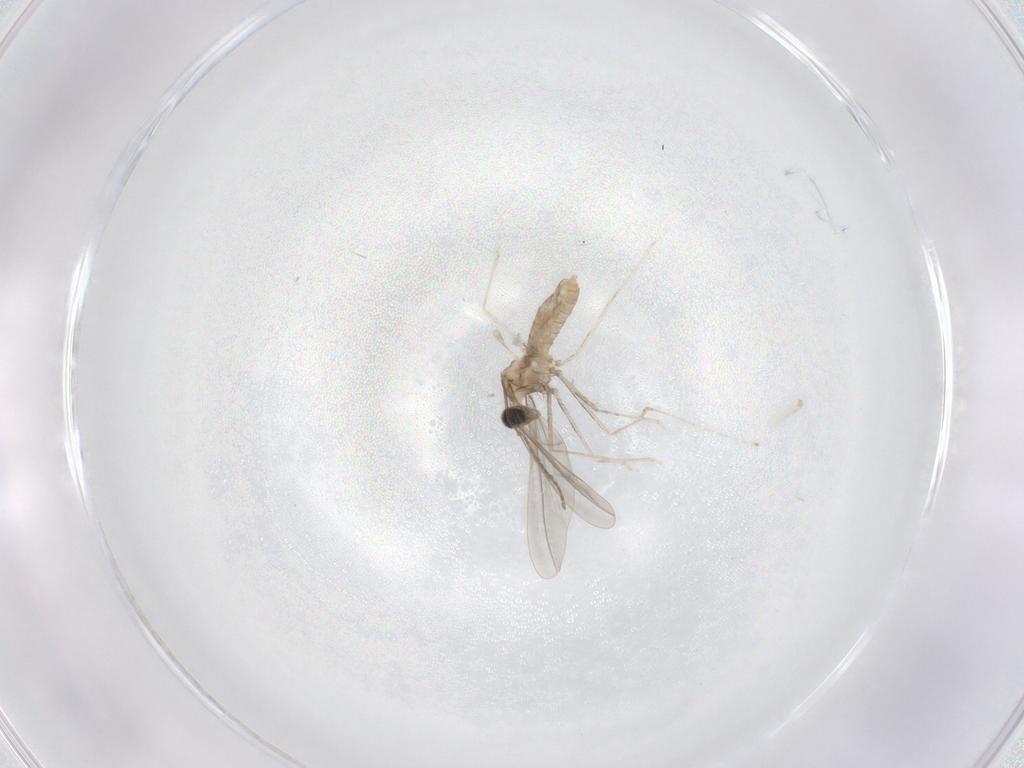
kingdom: Animalia
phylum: Arthropoda
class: Insecta
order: Diptera
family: Cecidomyiidae
